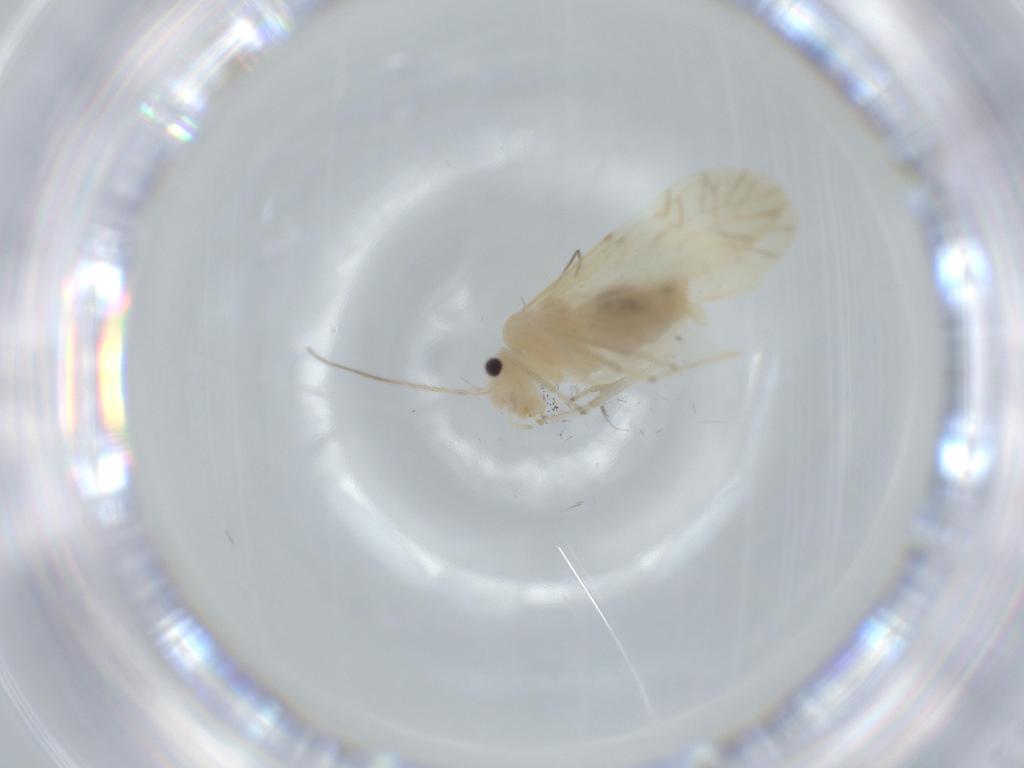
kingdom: Animalia
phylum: Arthropoda
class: Insecta
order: Psocodea
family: Caeciliusidae
